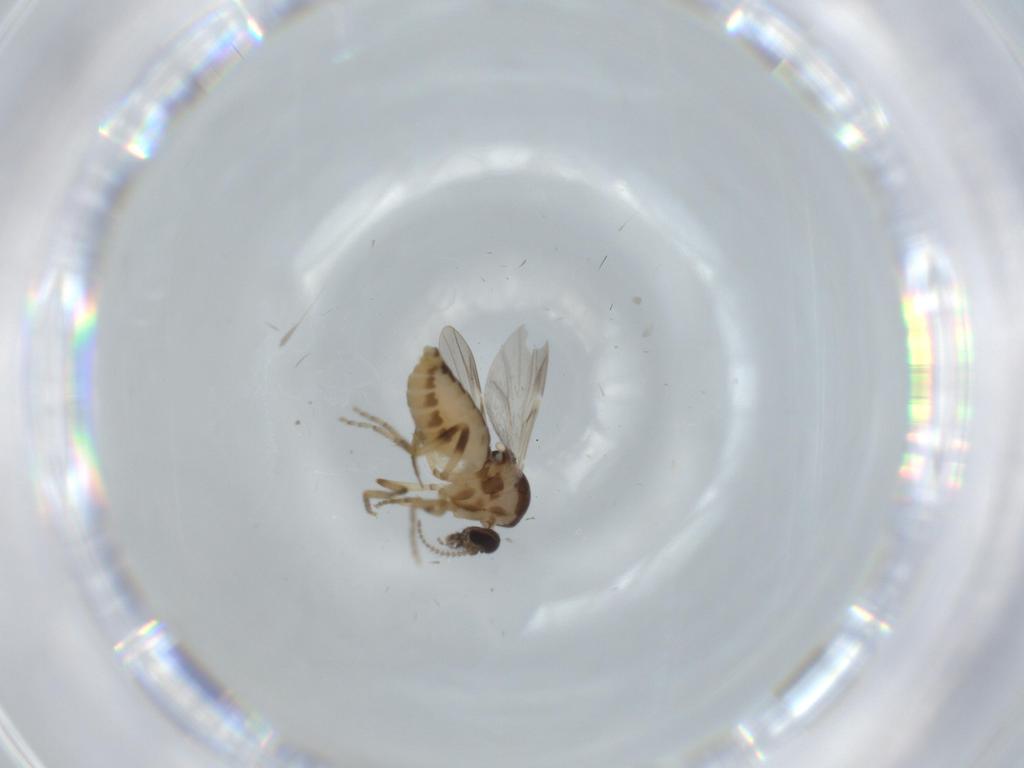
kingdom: Animalia
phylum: Arthropoda
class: Insecta
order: Diptera
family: Ceratopogonidae
